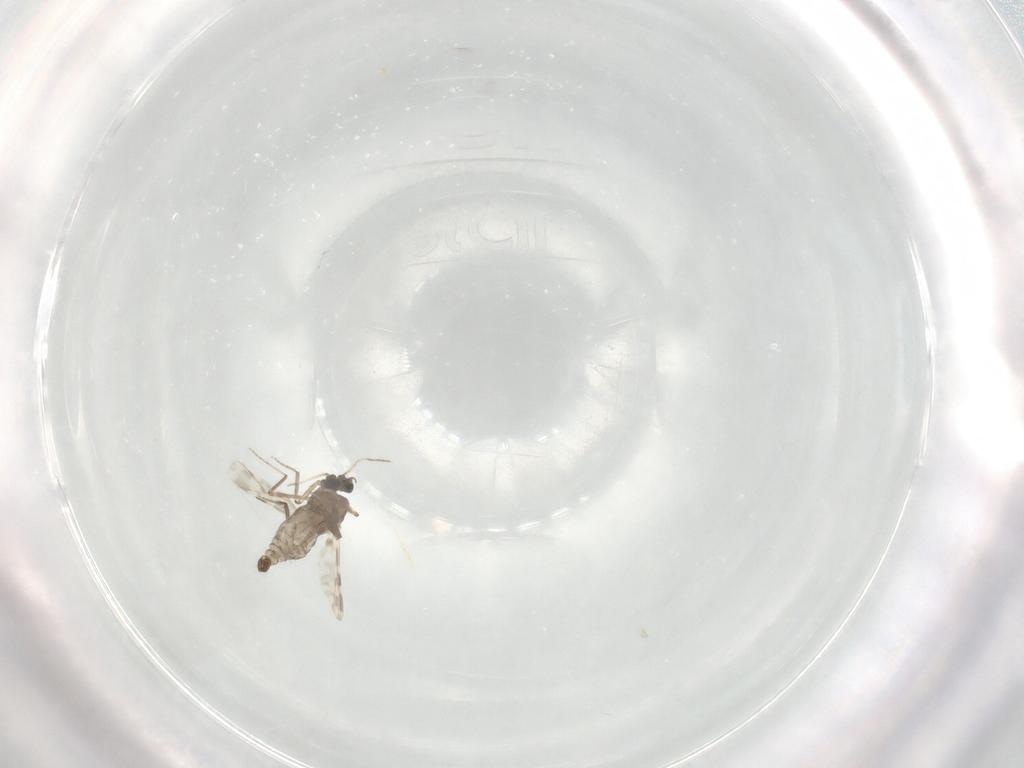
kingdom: Animalia
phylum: Arthropoda
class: Insecta
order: Diptera
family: Ceratopogonidae
